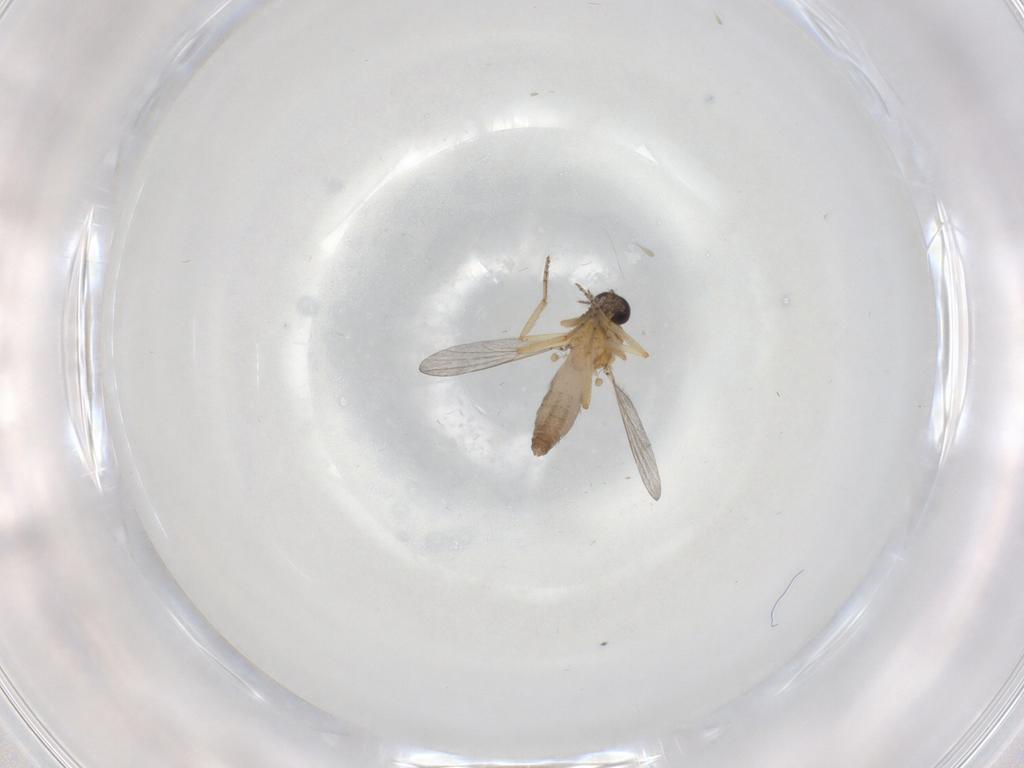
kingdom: Animalia
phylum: Arthropoda
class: Insecta
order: Diptera
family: Ceratopogonidae
